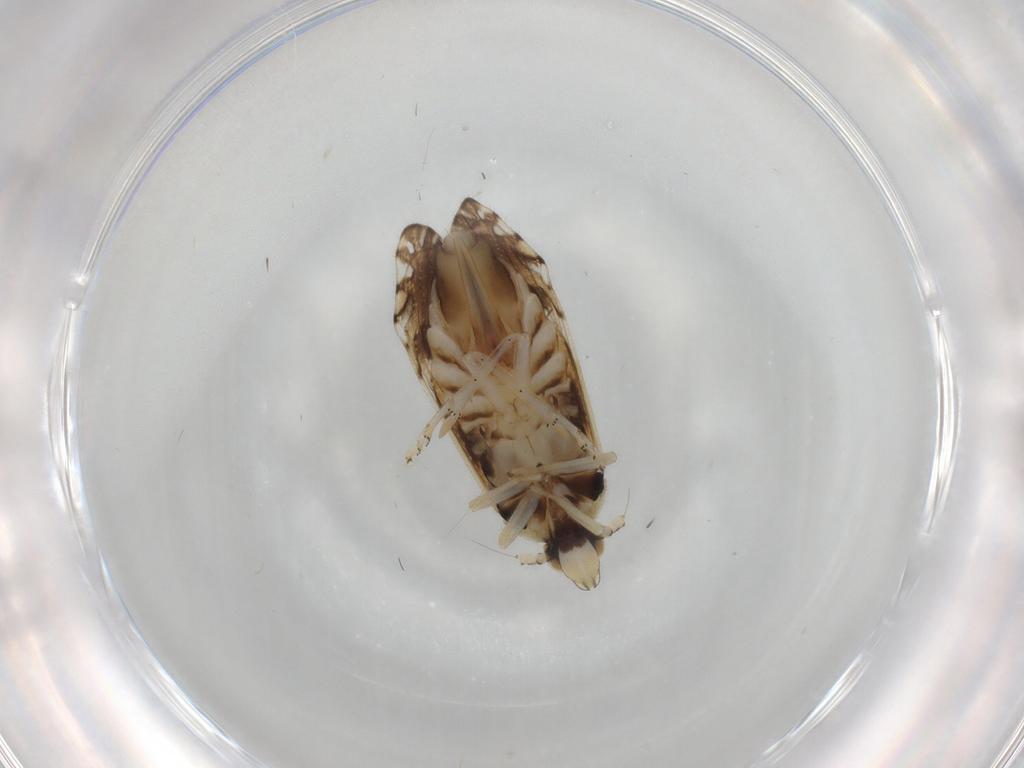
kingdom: Animalia
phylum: Arthropoda
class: Insecta
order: Hemiptera
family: Delphacidae
